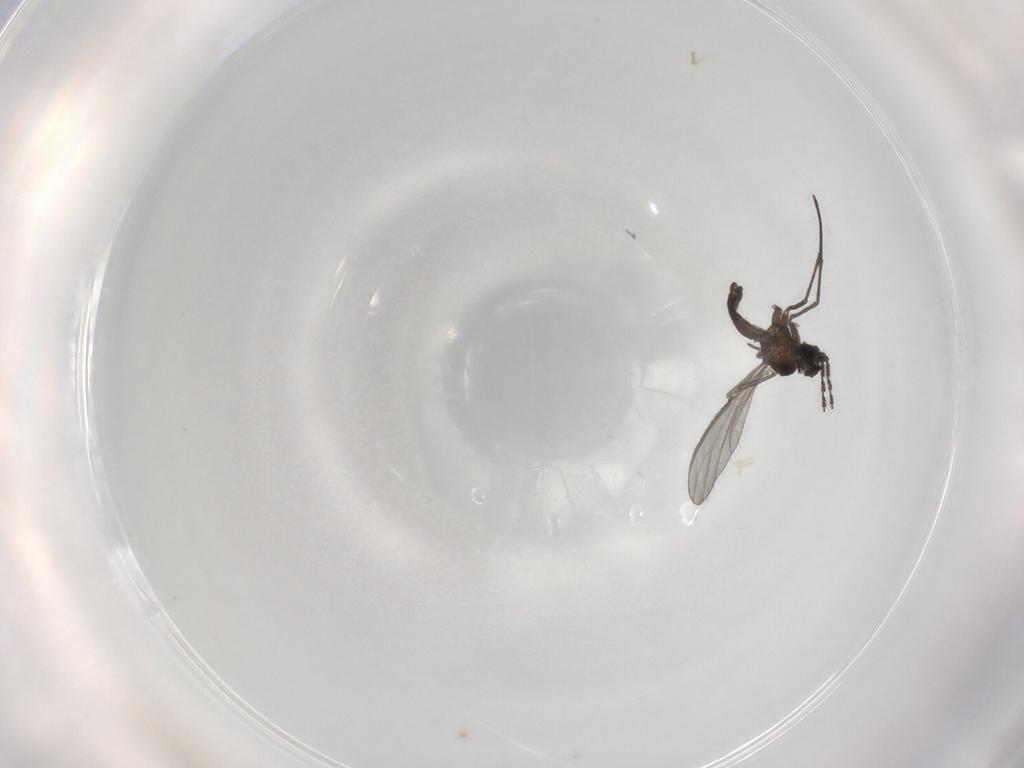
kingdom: Animalia
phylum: Arthropoda
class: Insecta
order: Diptera
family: Sciaridae
